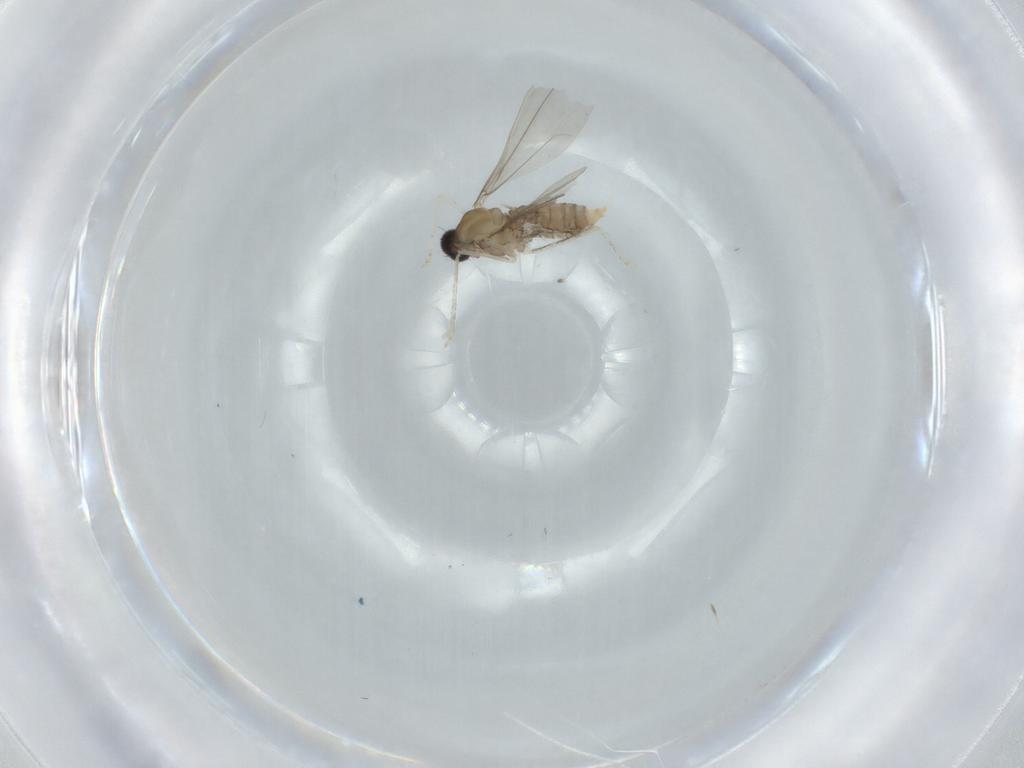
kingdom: Animalia
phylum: Arthropoda
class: Insecta
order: Diptera
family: Cecidomyiidae
